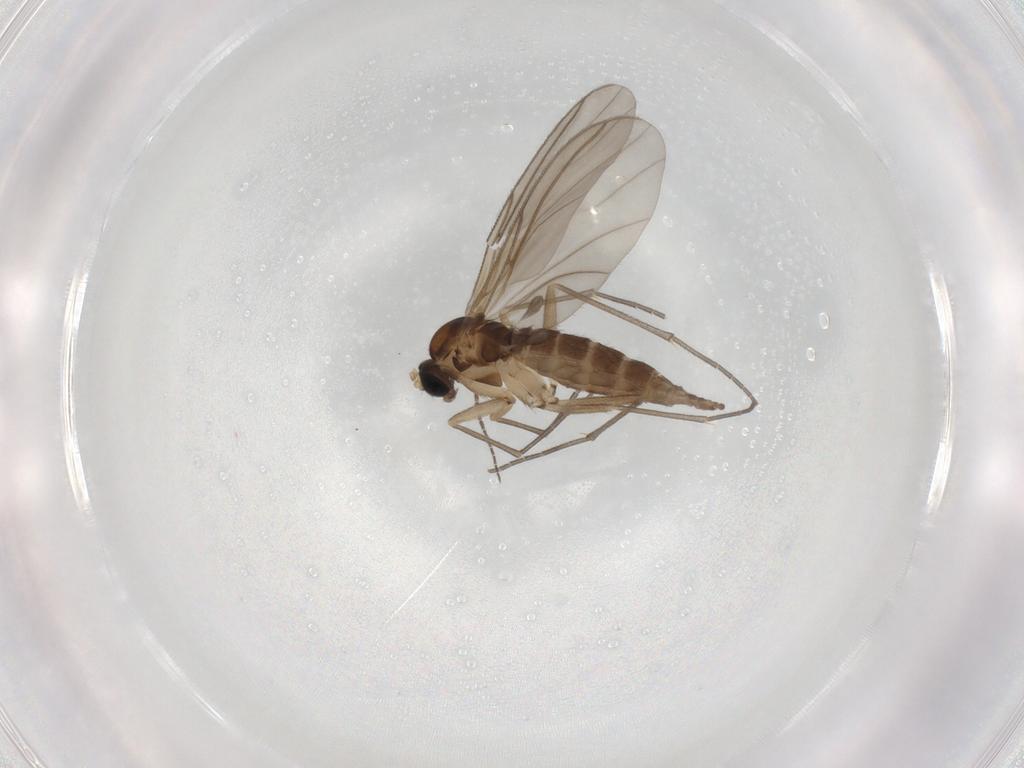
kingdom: Animalia
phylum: Arthropoda
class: Insecta
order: Diptera
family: Sciaridae
